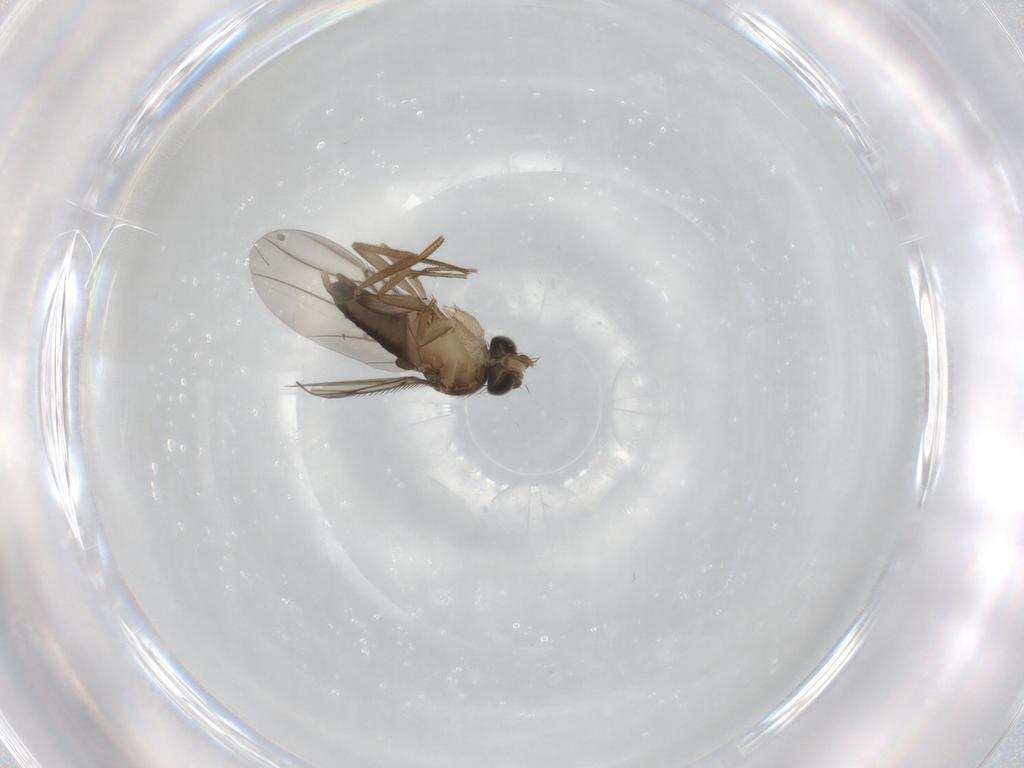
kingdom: Animalia
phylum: Arthropoda
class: Insecta
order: Diptera
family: Phoridae
